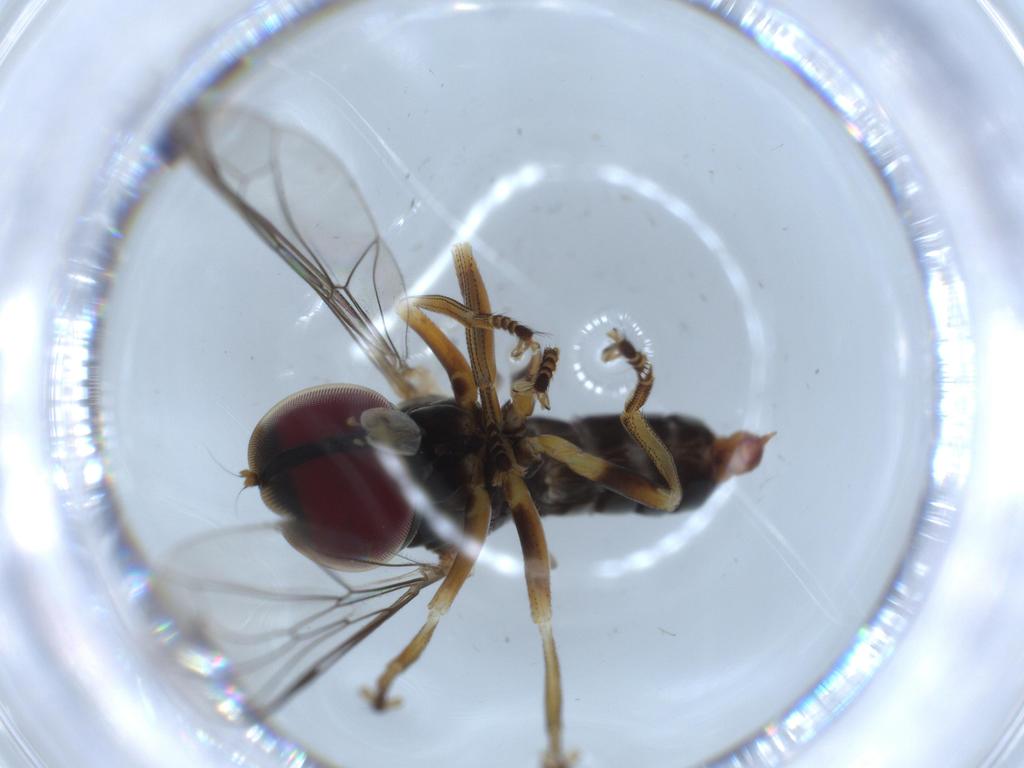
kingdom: Animalia
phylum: Arthropoda
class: Insecta
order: Diptera
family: Pipunculidae
